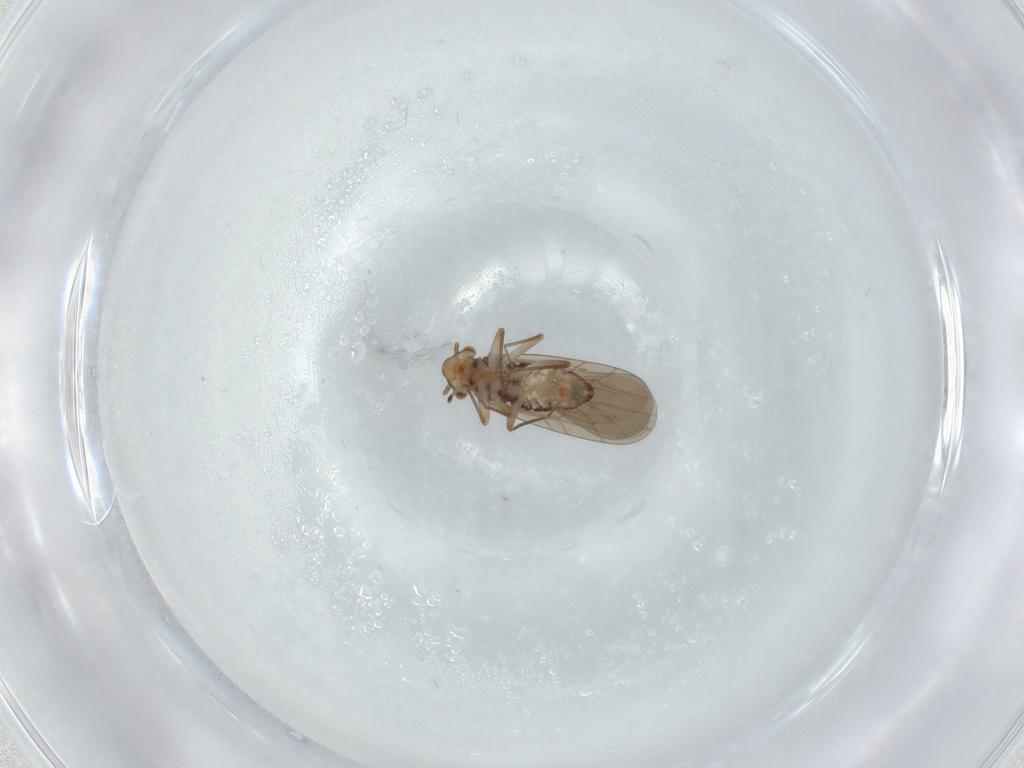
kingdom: Animalia
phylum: Arthropoda
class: Insecta
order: Psocodea
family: Lepidopsocidae
